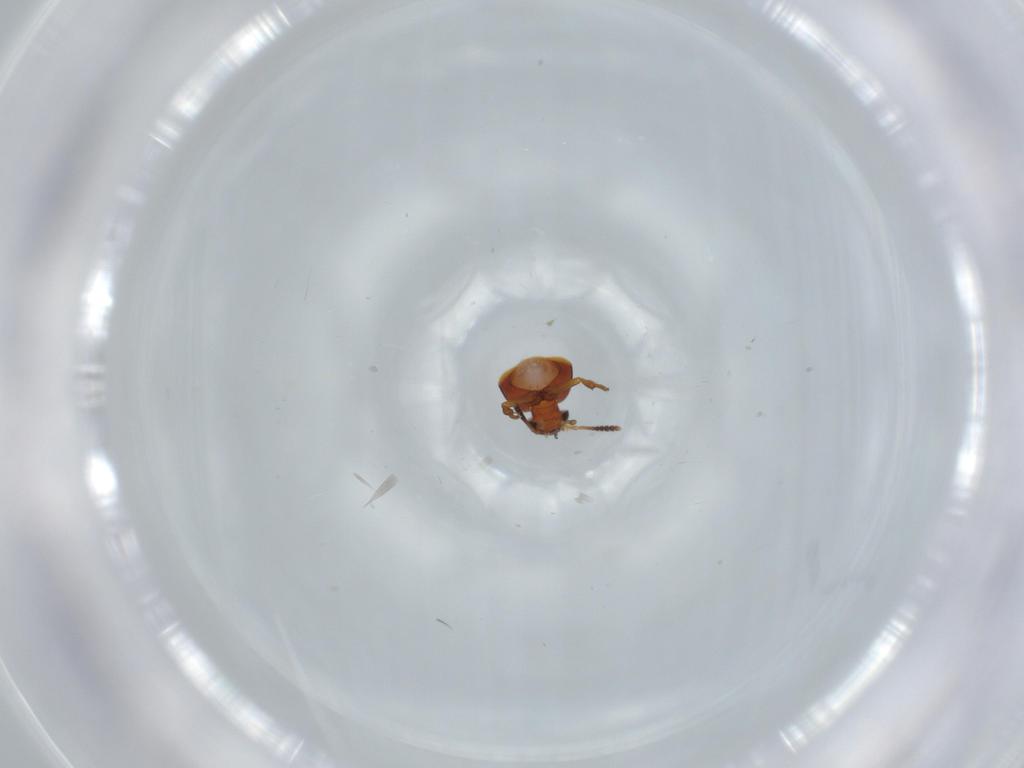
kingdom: Animalia
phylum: Arthropoda
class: Insecta
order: Coleoptera
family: Scraptiidae
